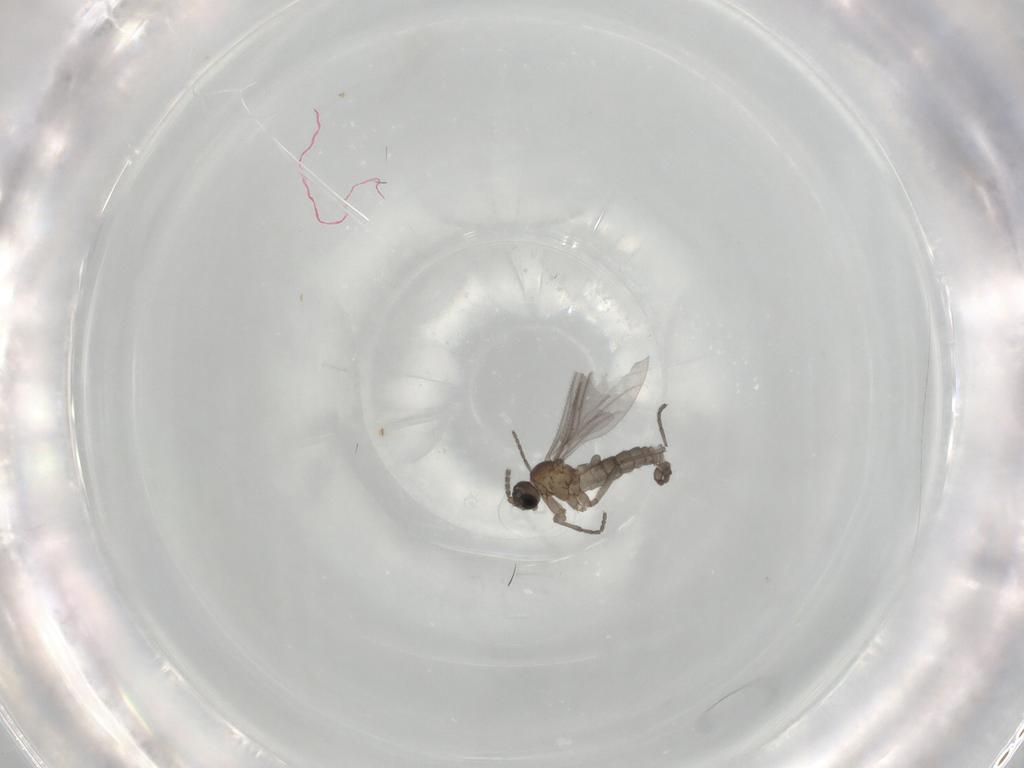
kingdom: Animalia
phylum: Arthropoda
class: Insecta
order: Diptera
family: Sciaridae
